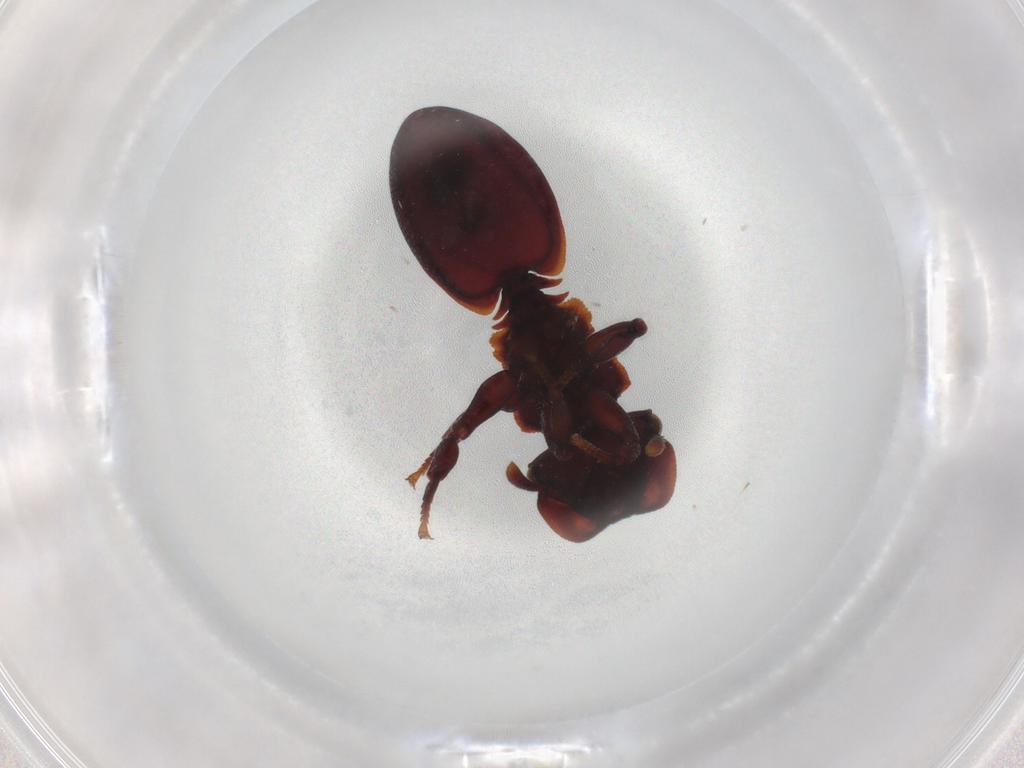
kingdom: Animalia
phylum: Arthropoda
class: Insecta
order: Hymenoptera
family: Formicidae
